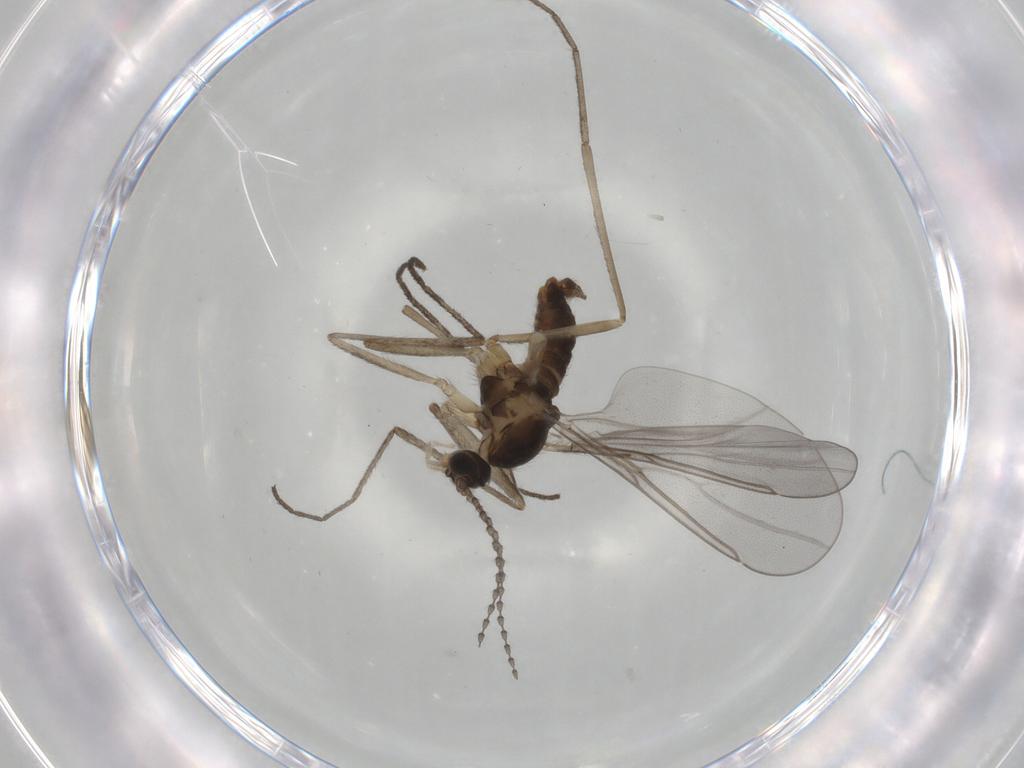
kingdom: Animalia
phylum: Arthropoda
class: Insecta
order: Diptera
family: Cecidomyiidae
